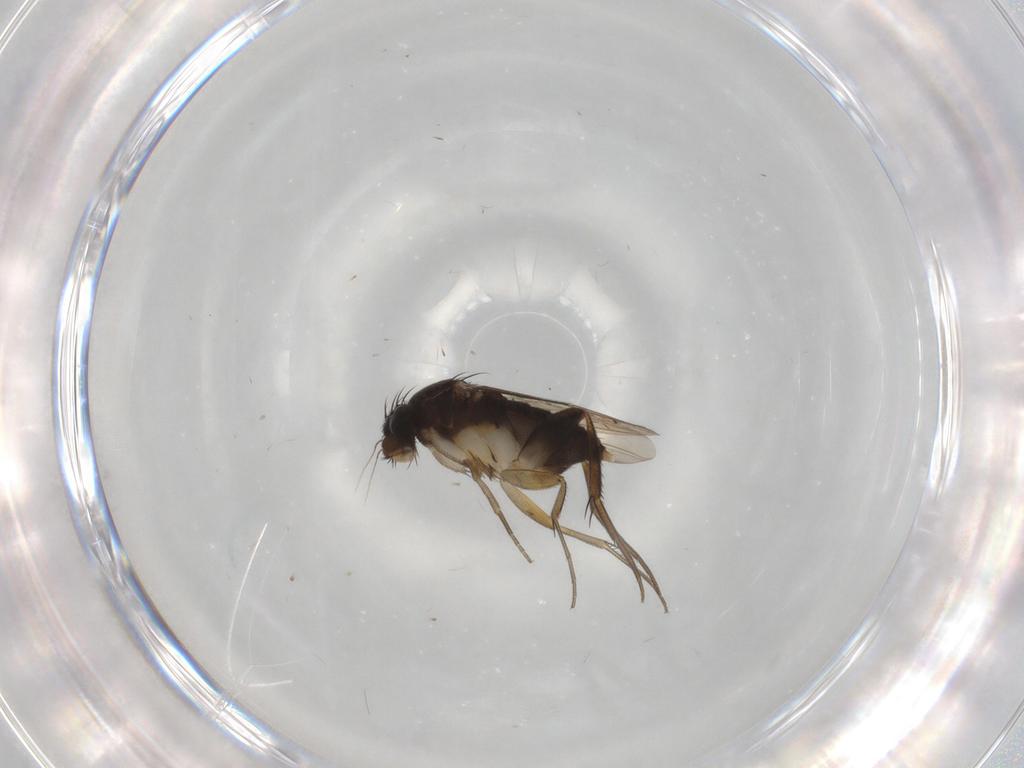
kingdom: Animalia
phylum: Arthropoda
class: Insecta
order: Diptera
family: Phoridae
